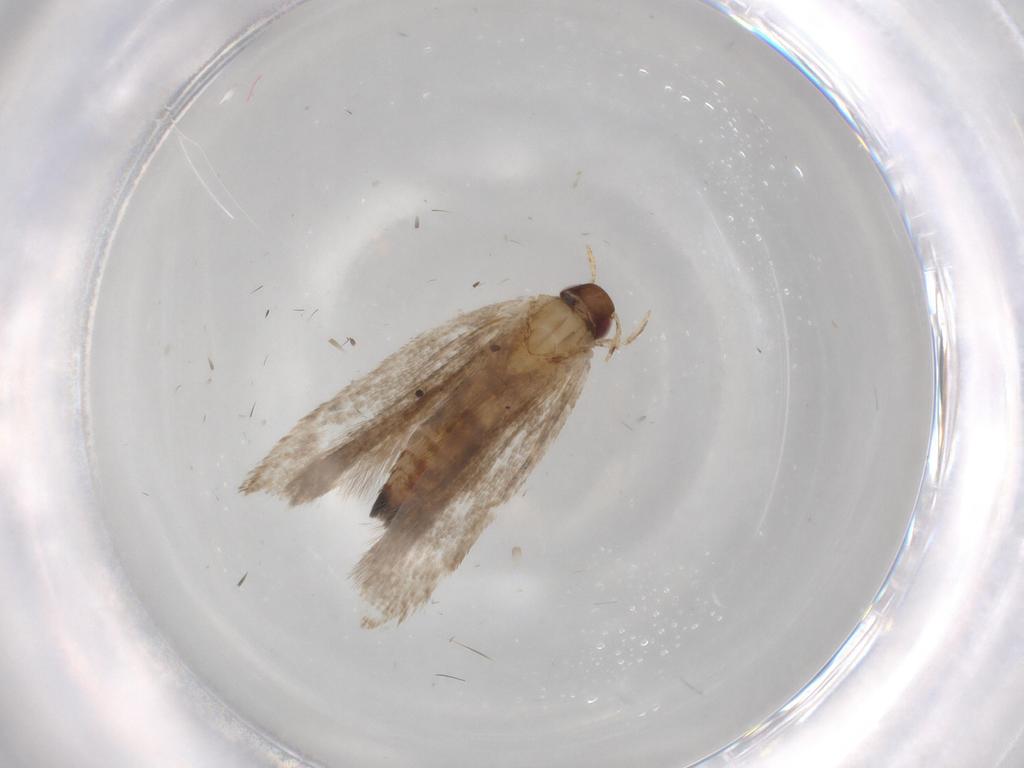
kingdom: Animalia
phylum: Arthropoda
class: Insecta
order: Lepidoptera
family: Gelechiidae
